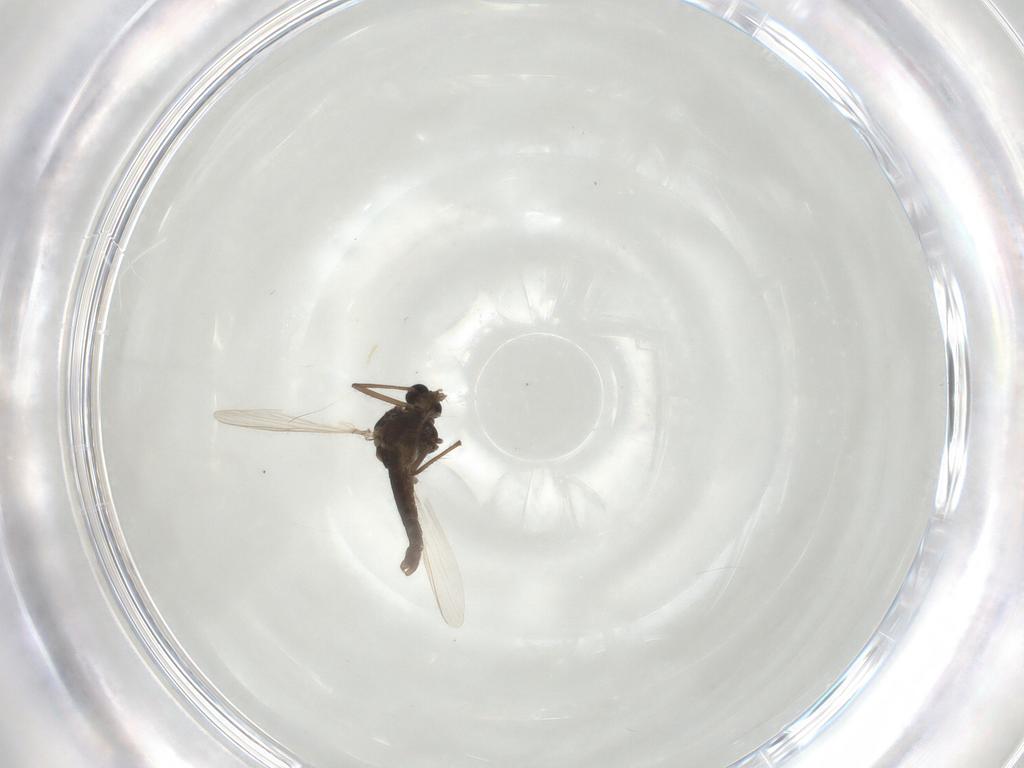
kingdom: Animalia
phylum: Arthropoda
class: Insecta
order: Diptera
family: Chironomidae
